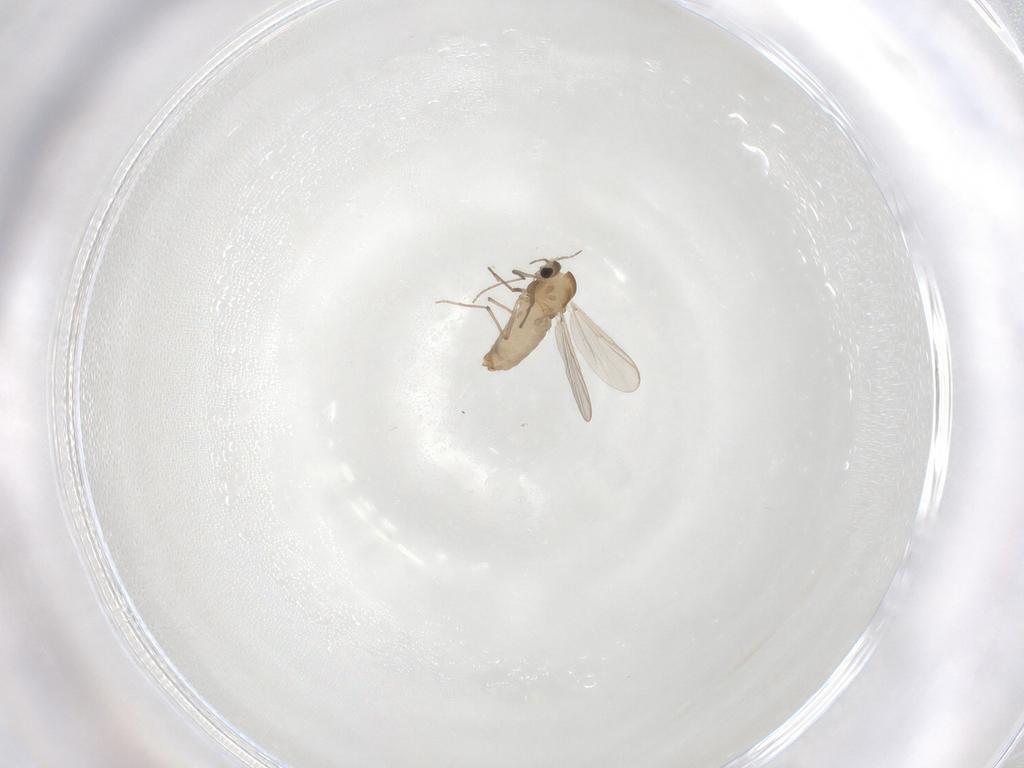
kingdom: Animalia
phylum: Arthropoda
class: Insecta
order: Diptera
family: Chironomidae
